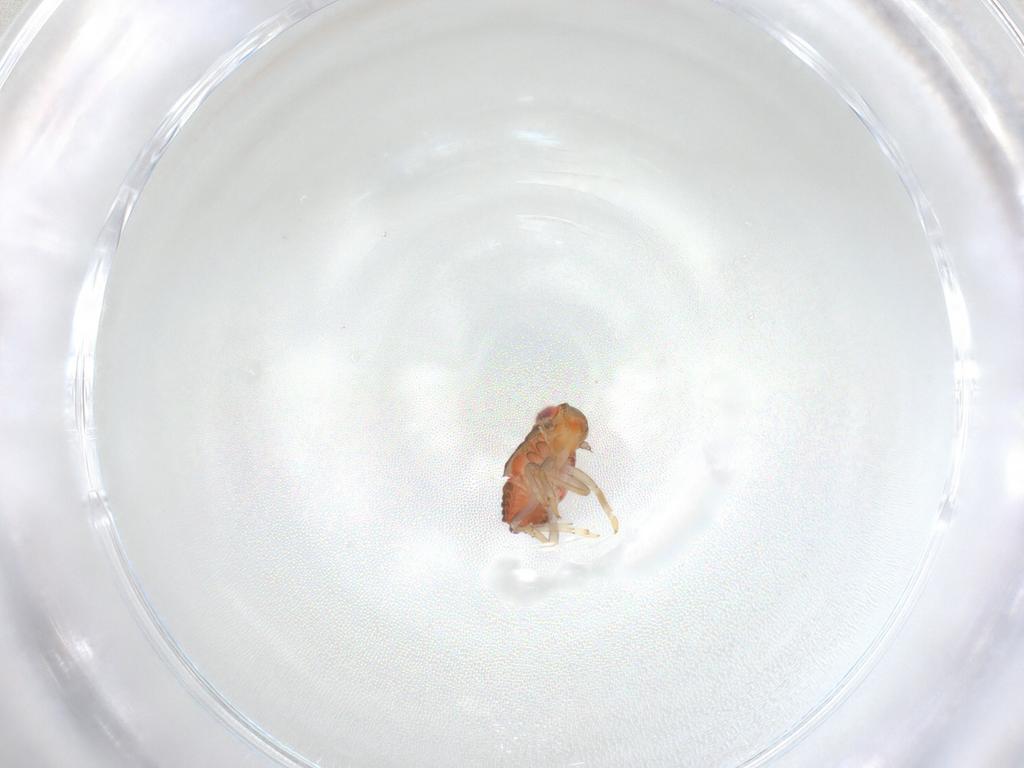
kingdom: Animalia
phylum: Arthropoda
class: Insecta
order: Hemiptera
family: Issidae
